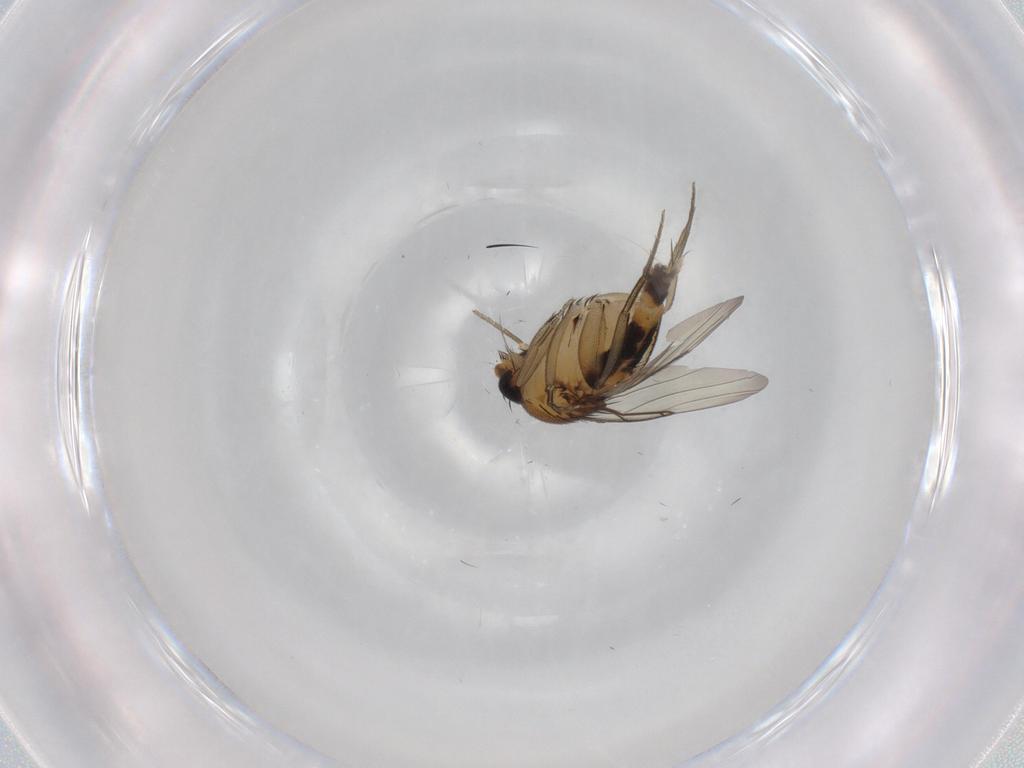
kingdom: Animalia
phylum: Arthropoda
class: Insecta
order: Diptera
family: Phoridae
